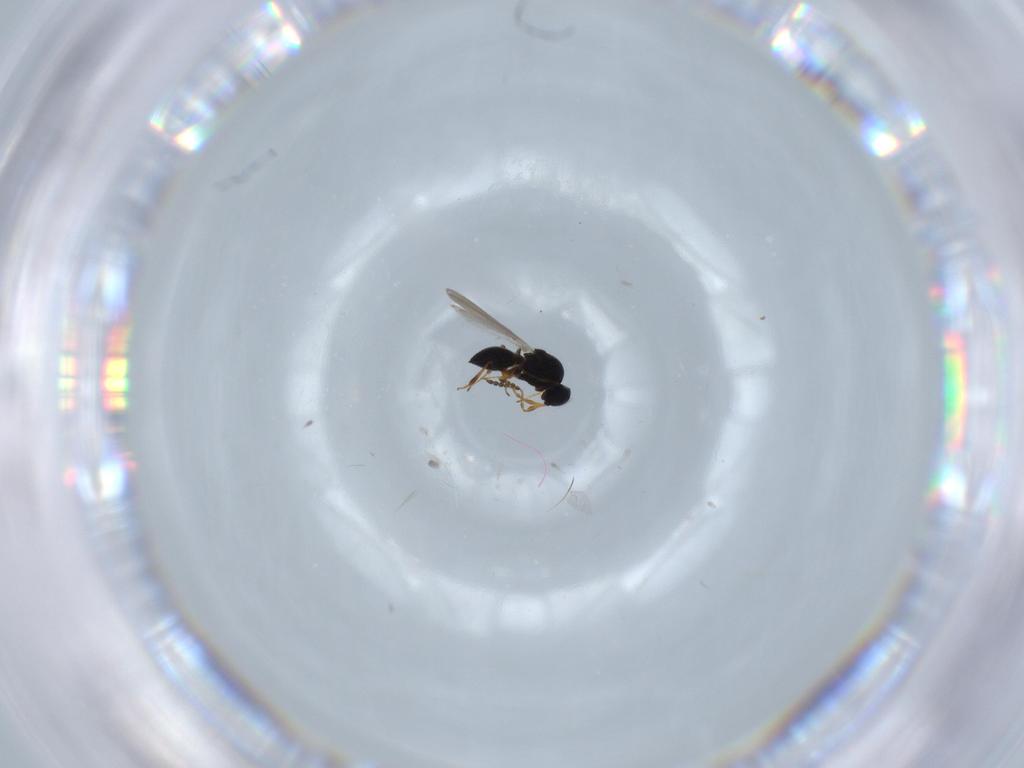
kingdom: Animalia
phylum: Arthropoda
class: Insecta
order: Hymenoptera
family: Platygastridae
